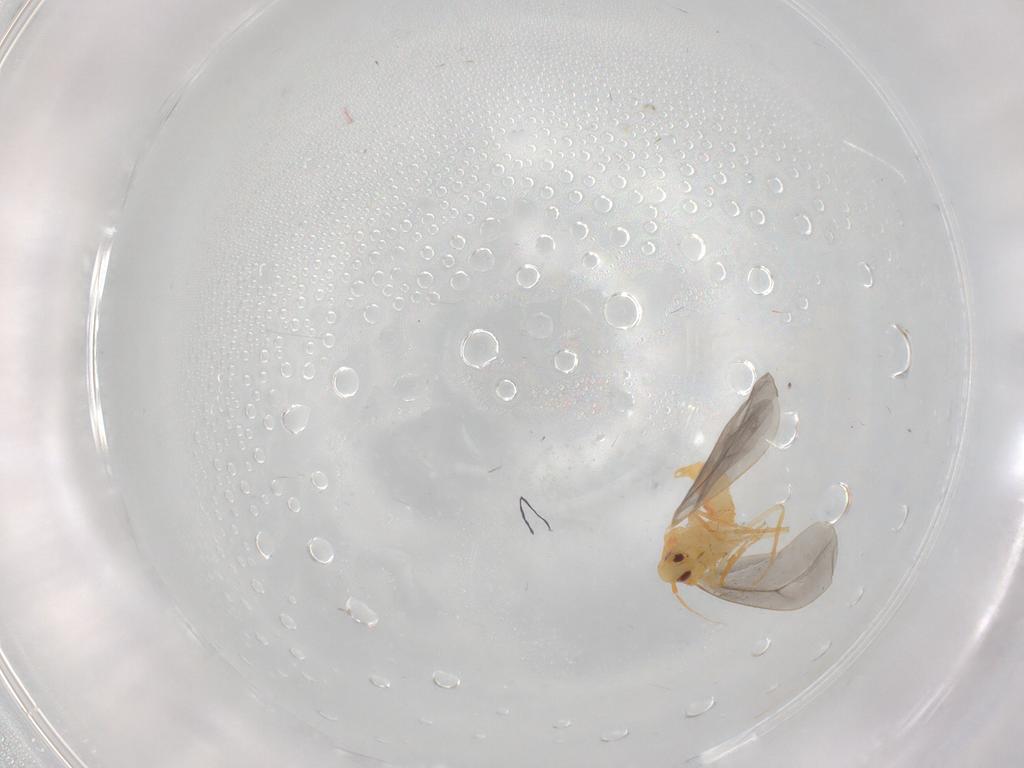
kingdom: Animalia
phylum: Arthropoda
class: Insecta
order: Hemiptera
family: Aleyrodidae
